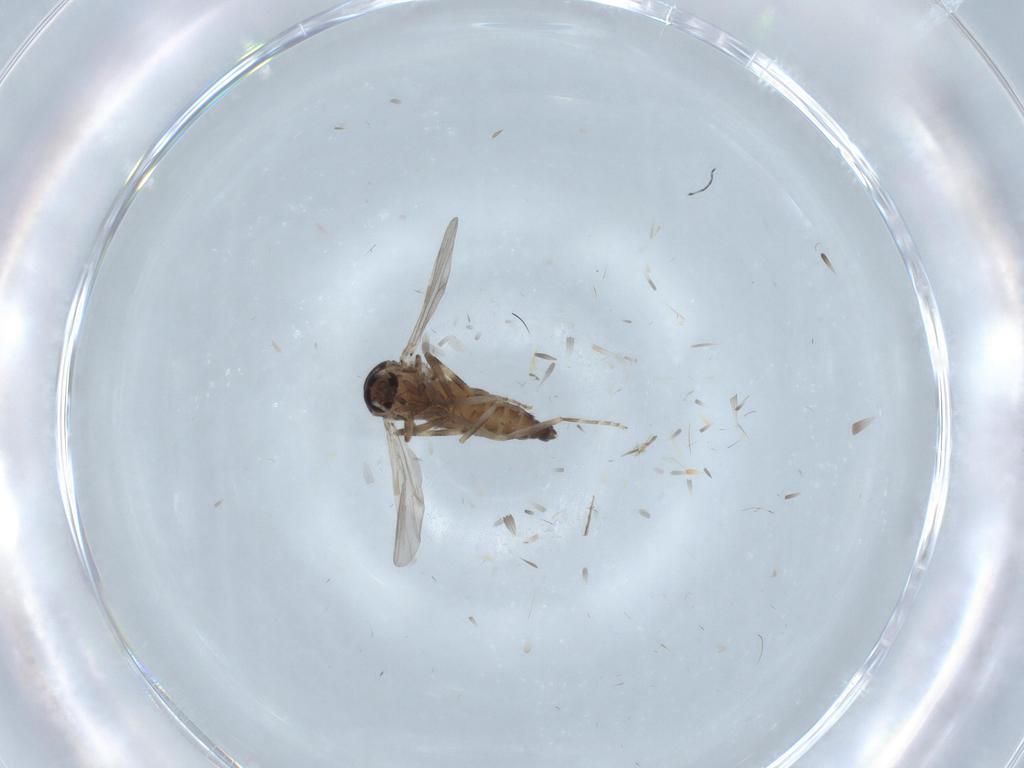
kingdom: Animalia
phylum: Arthropoda
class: Insecta
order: Diptera
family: Ceratopogonidae
